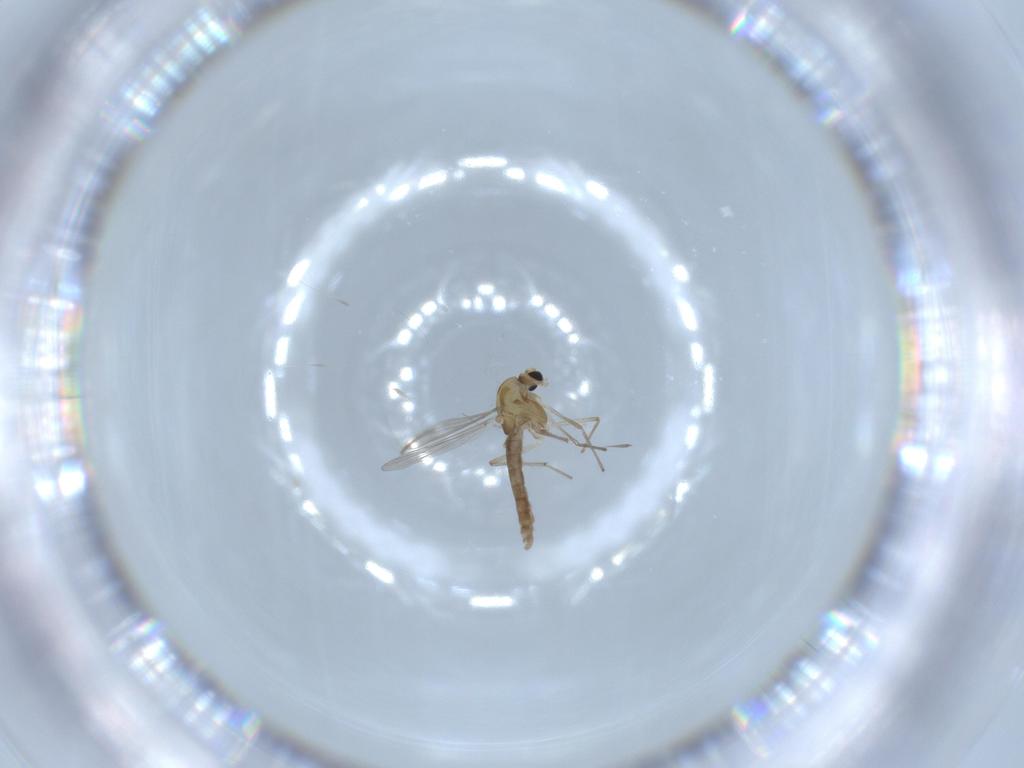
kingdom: Animalia
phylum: Arthropoda
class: Insecta
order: Diptera
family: Chironomidae
